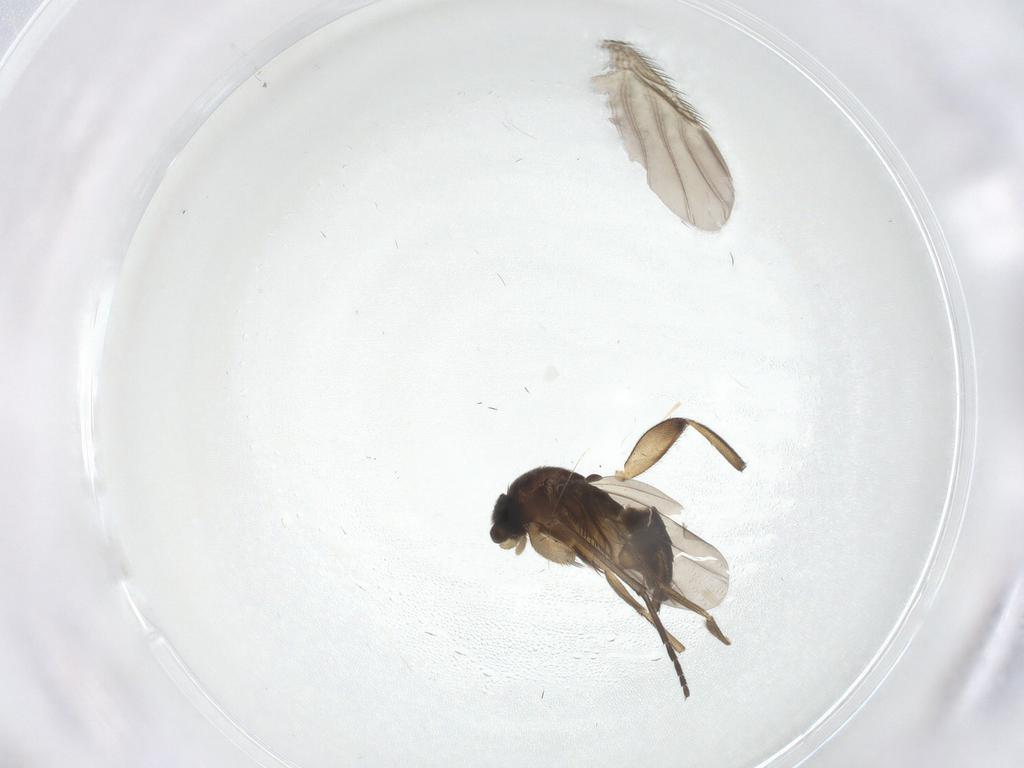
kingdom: Animalia
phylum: Arthropoda
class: Insecta
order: Diptera
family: Phoridae
